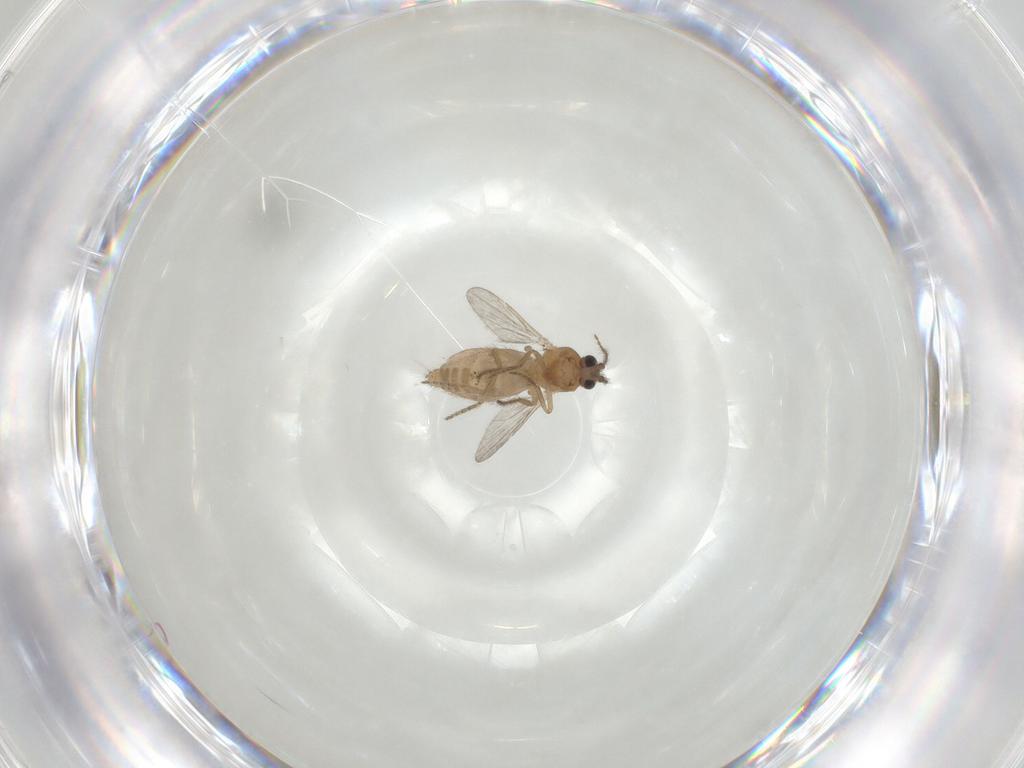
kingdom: Animalia
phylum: Arthropoda
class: Insecta
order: Diptera
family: Ceratopogonidae
